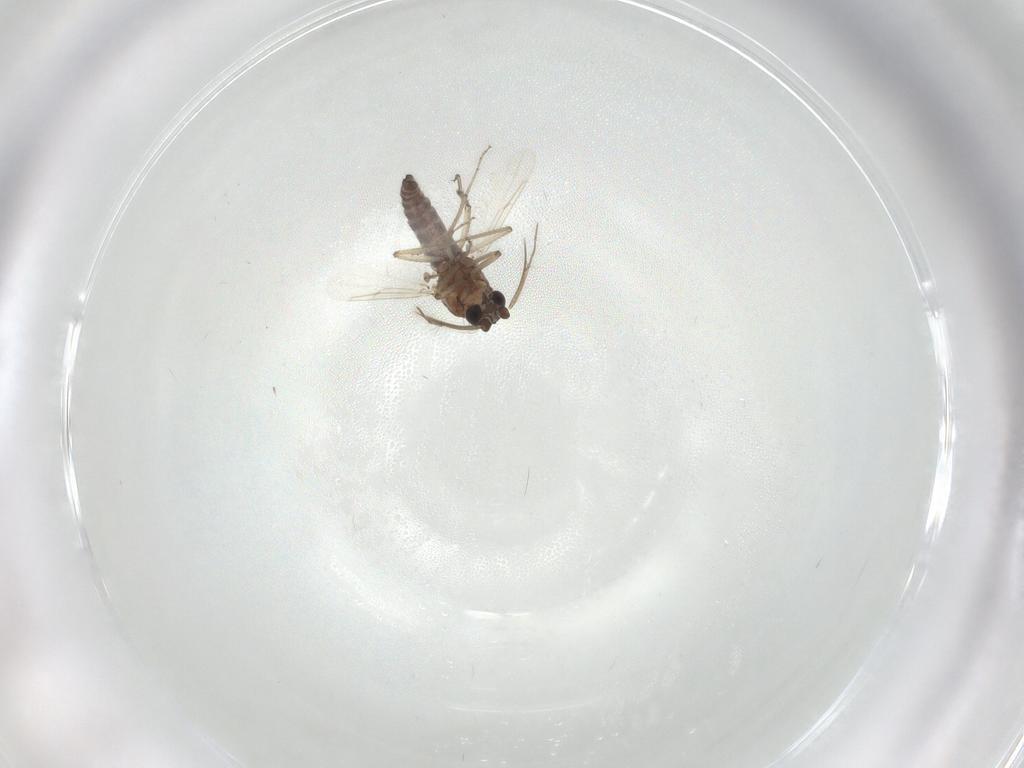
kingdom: Animalia
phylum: Arthropoda
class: Insecta
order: Diptera
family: Ceratopogonidae
